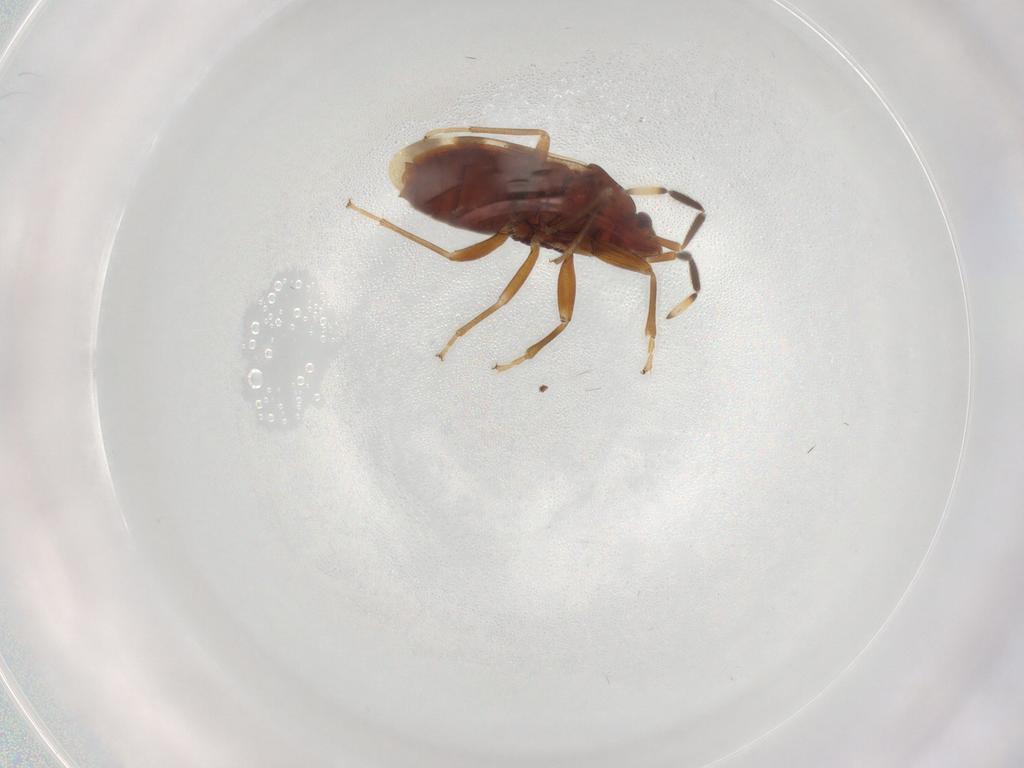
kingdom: Animalia
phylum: Arthropoda
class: Insecta
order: Hemiptera
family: Rhyparochromidae
